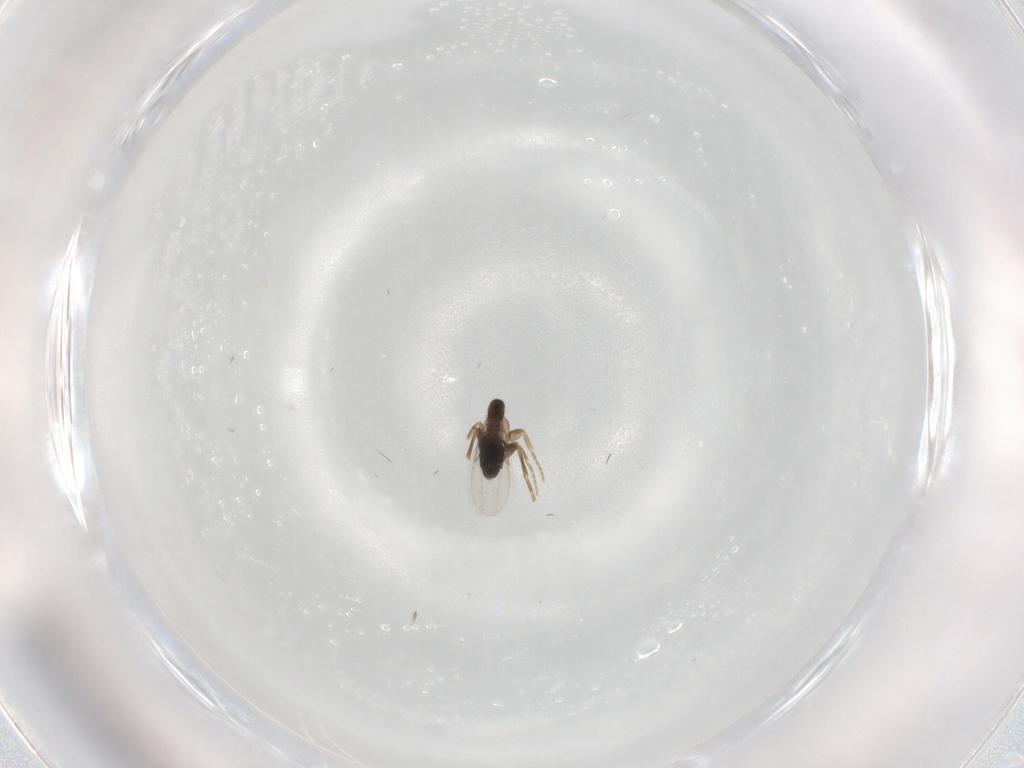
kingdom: Animalia
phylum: Arthropoda
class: Insecta
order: Diptera
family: Phoridae
